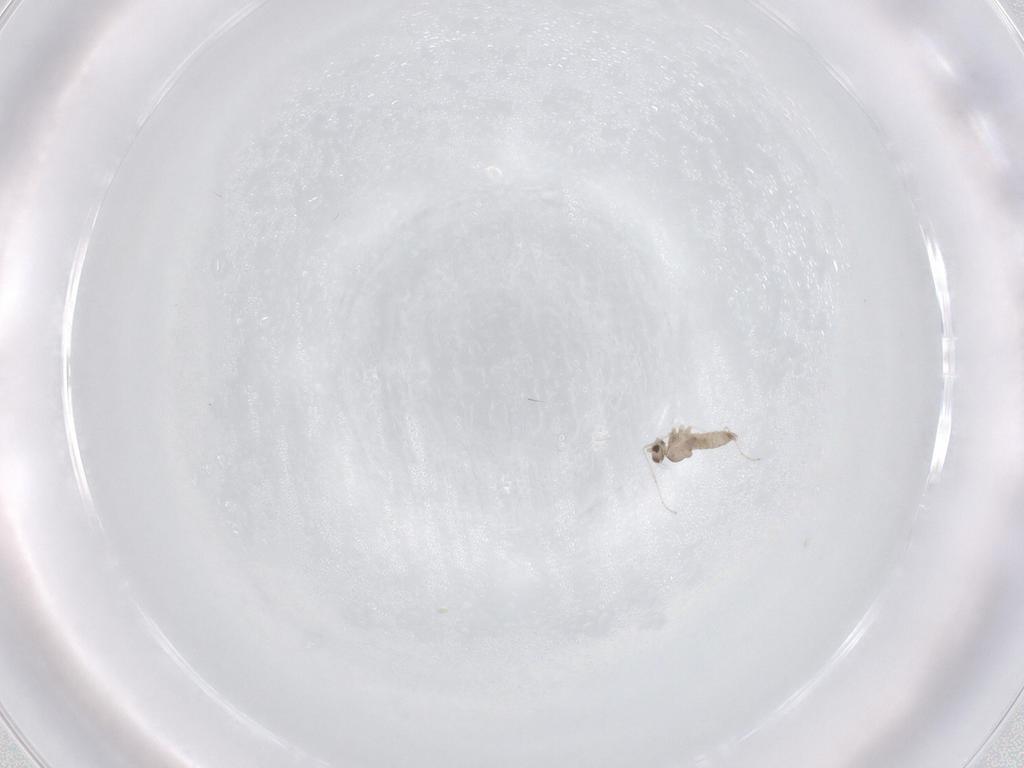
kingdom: Animalia
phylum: Arthropoda
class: Insecta
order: Diptera
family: Cecidomyiidae
